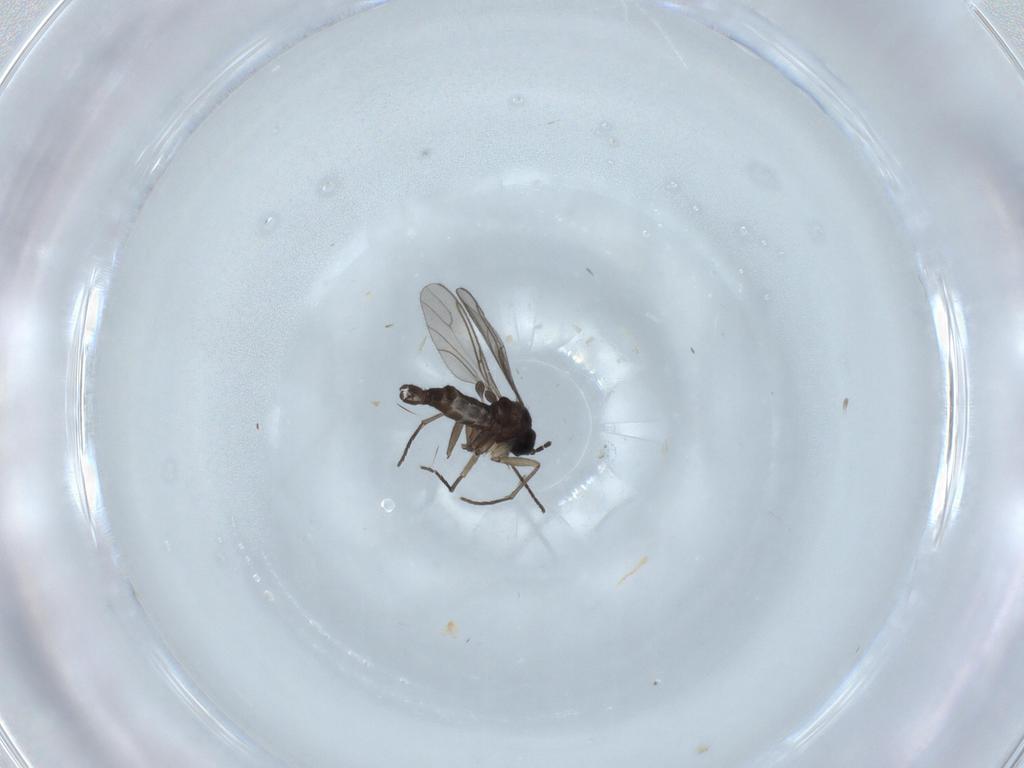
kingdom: Animalia
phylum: Arthropoda
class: Insecta
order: Diptera
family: Sciaridae
